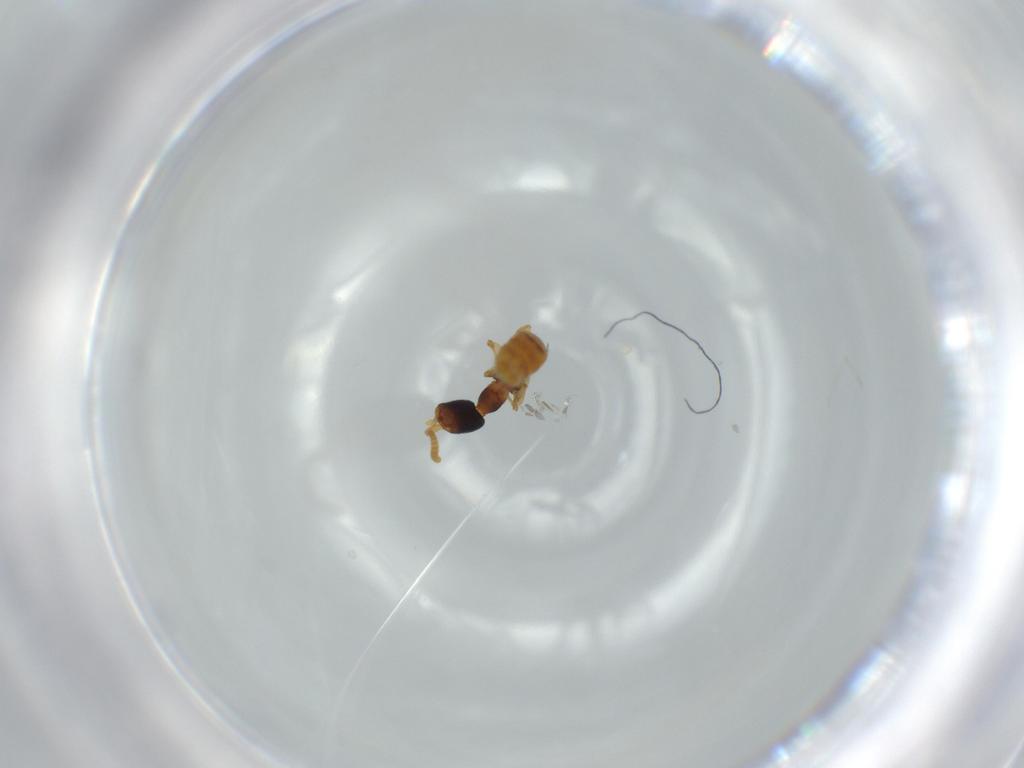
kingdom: Animalia
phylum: Arthropoda
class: Insecta
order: Hymenoptera
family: Bethylidae
